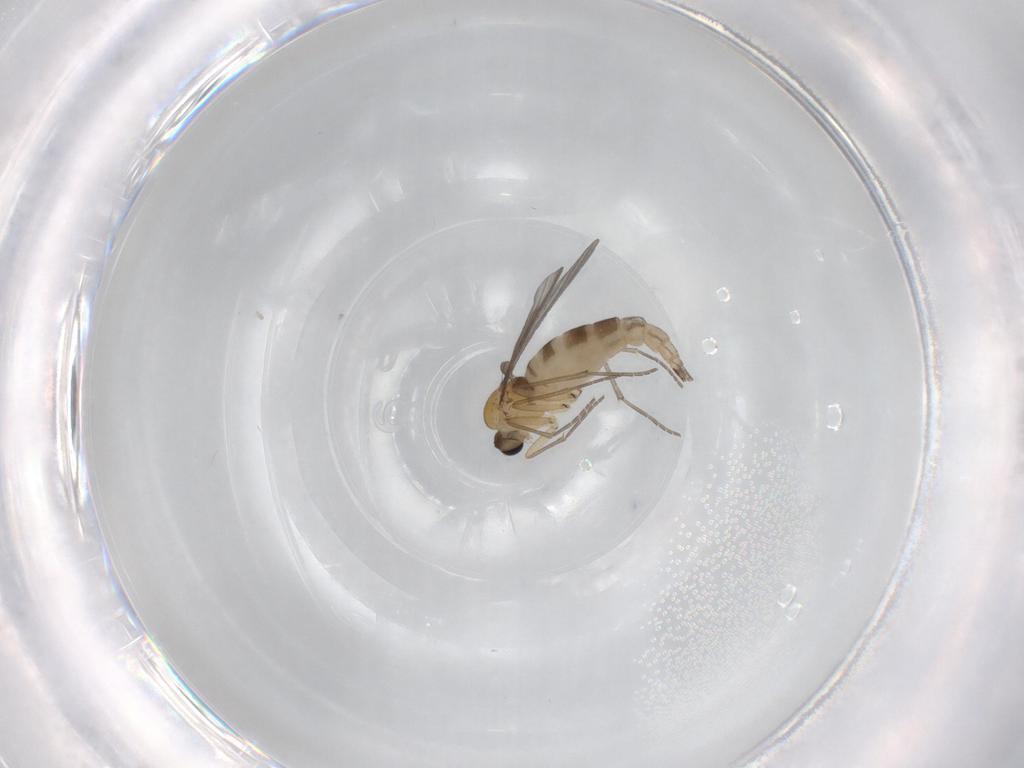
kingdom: Animalia
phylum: Arthropoda
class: Insecta
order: Diptera
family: Sciaridae
